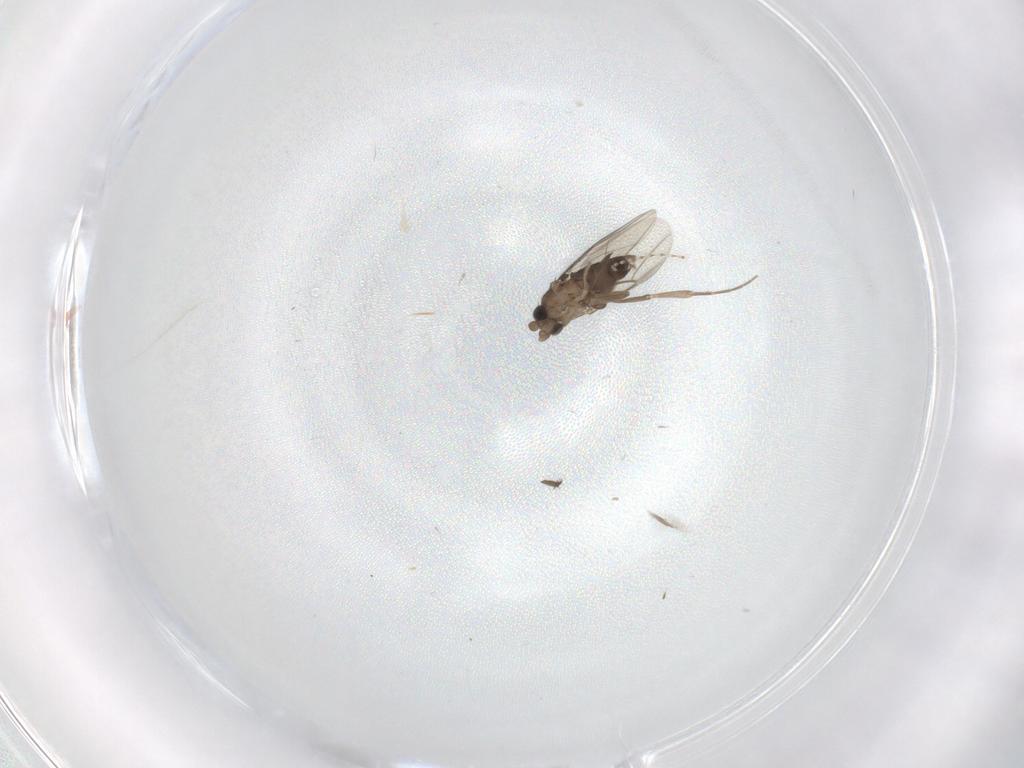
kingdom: Animalia
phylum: Arthropoda
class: Insecta
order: Diptera
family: Phoridae
